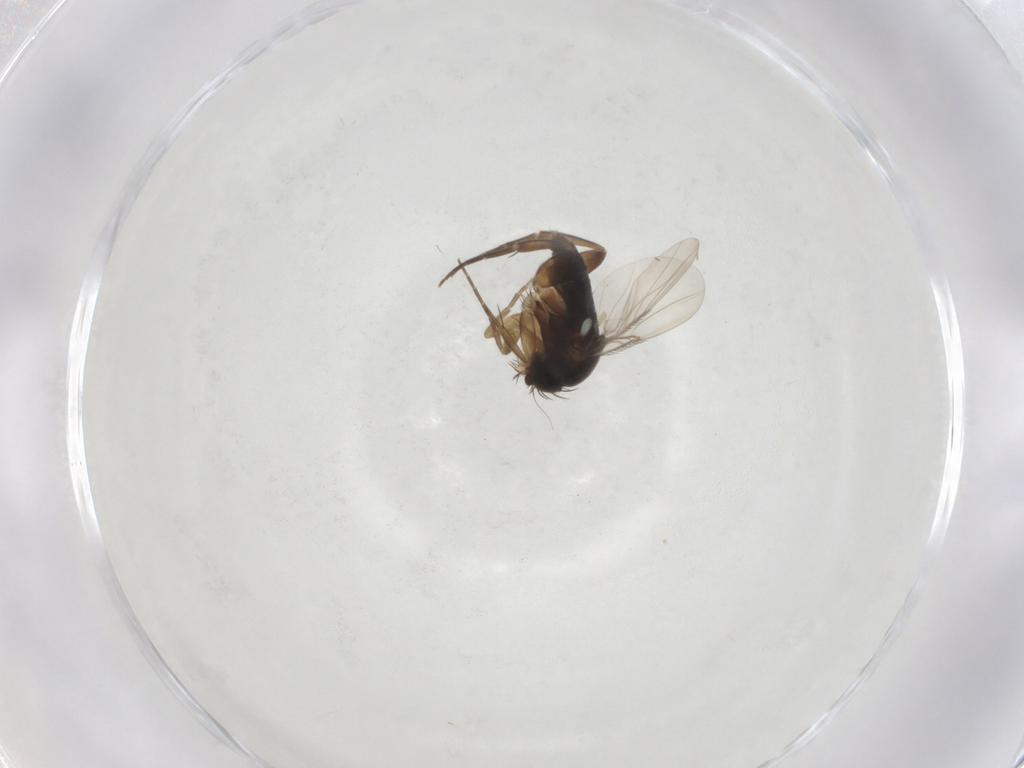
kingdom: Animalia
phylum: Arthropoda
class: Insecta
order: Diptera
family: Phoridae
